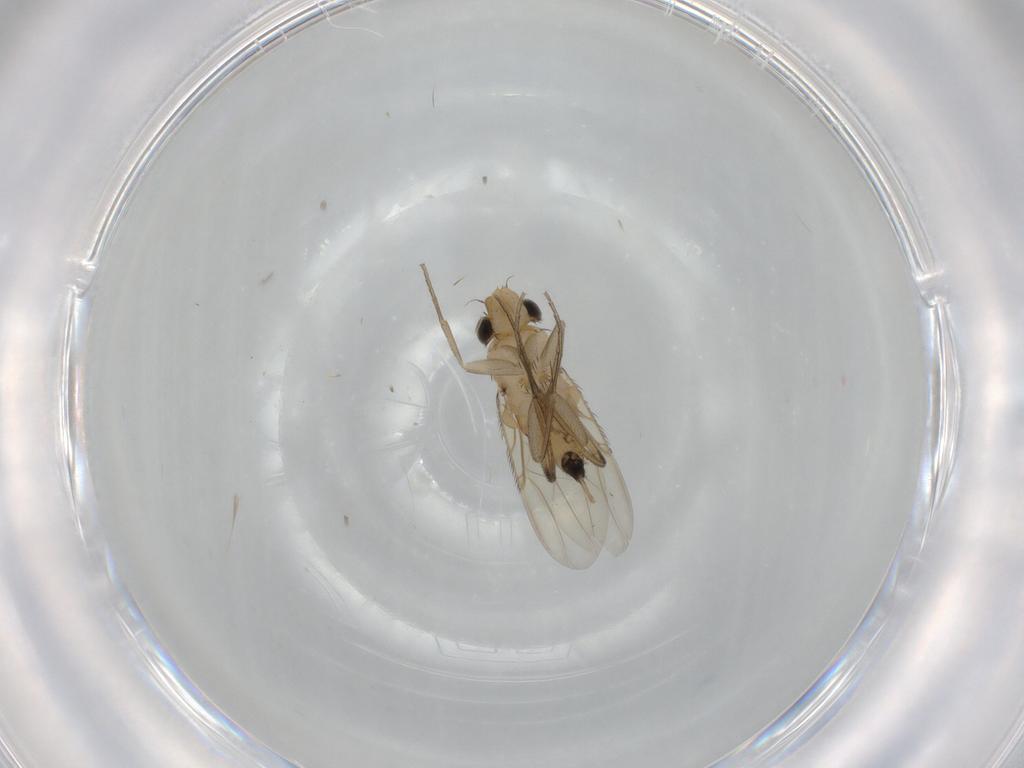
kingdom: Animalia
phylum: Arthropoda
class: Insecta
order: Diptera
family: Phoridae
